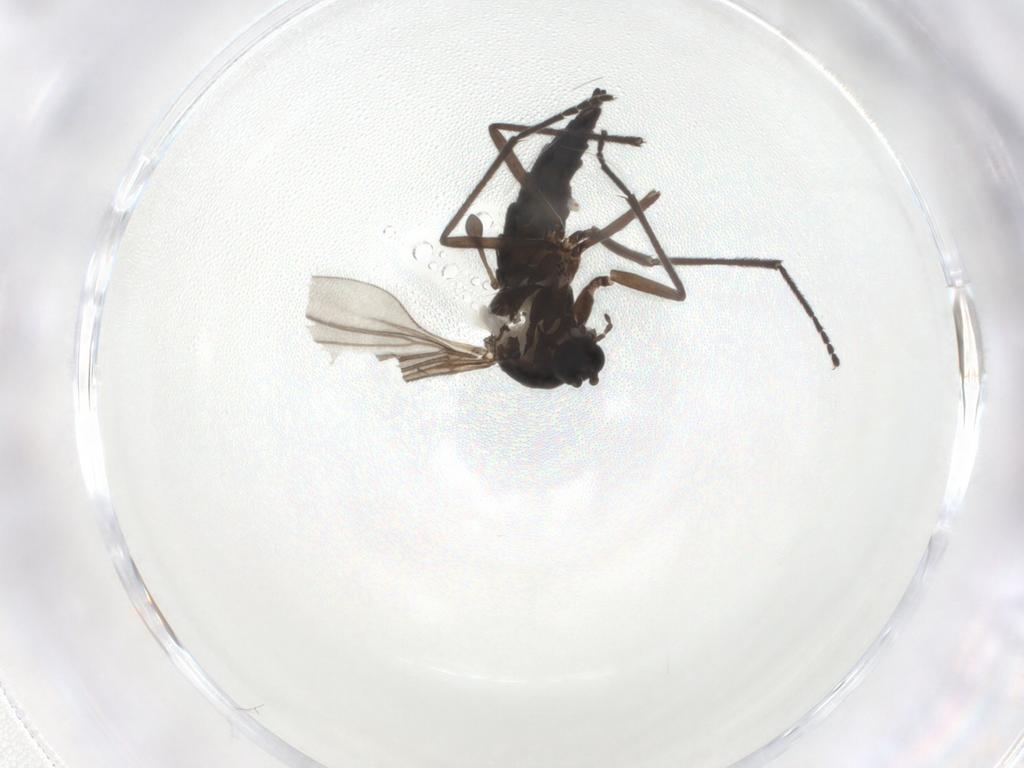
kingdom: Animalia
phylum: Arthropoda
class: Insecta
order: Diptera
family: Sciaridae
